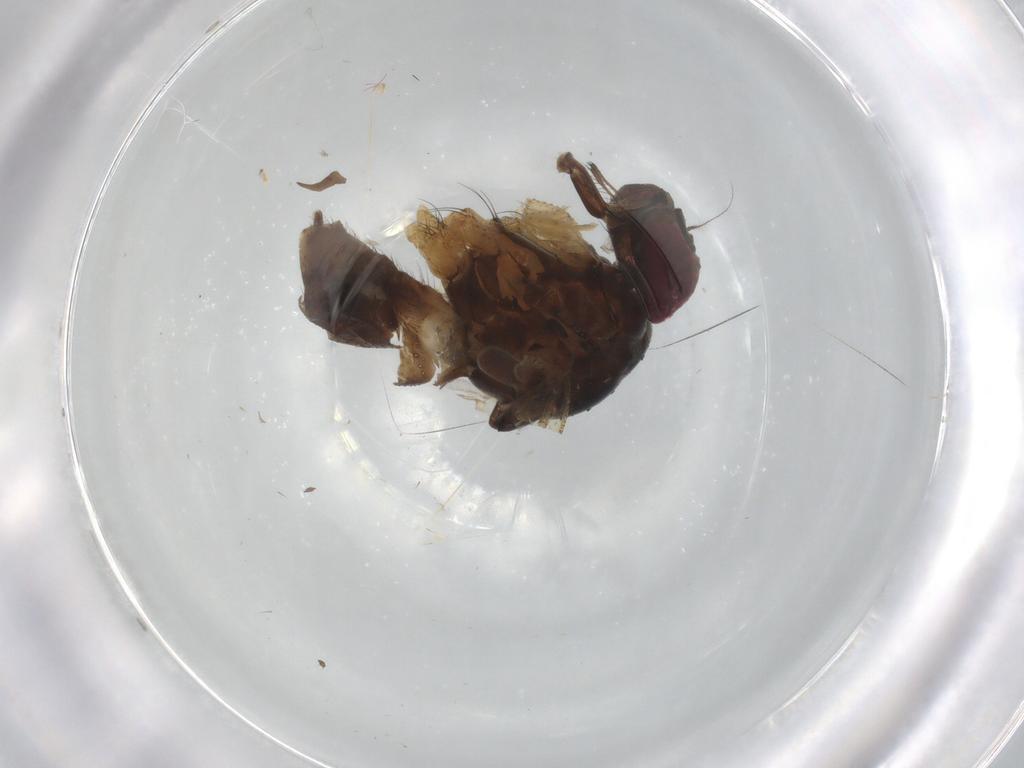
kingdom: Animalia
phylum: Arthropoda
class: Insecta
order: Diptera
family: Muscidae
